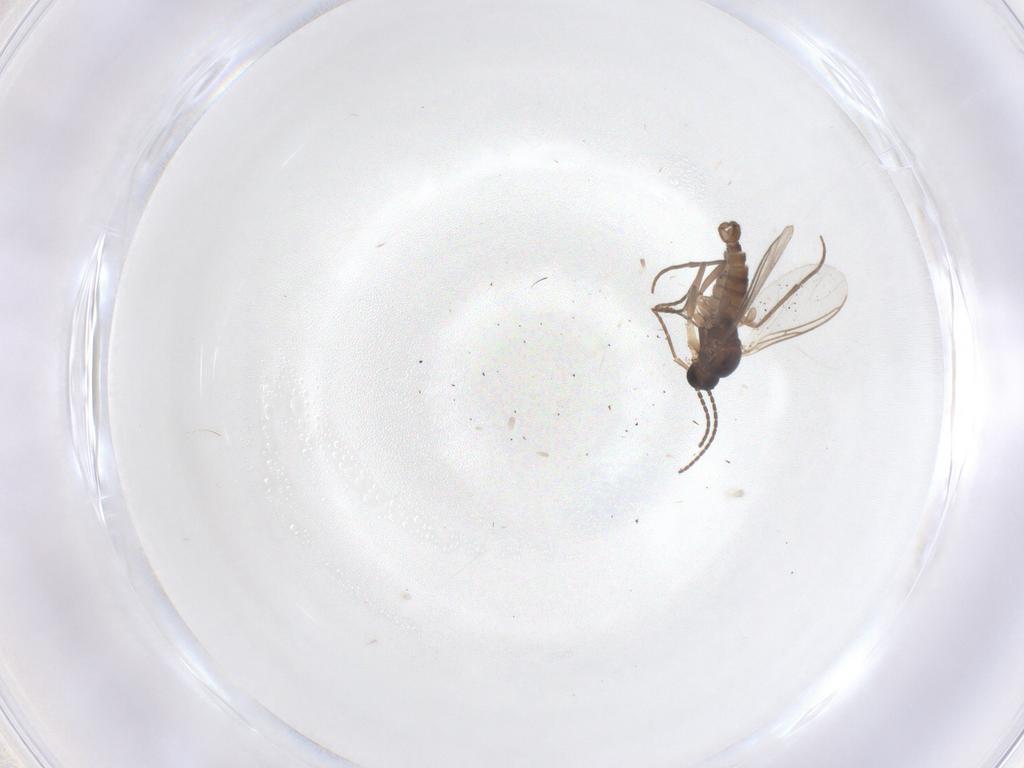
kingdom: Animalia
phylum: Arthropoda
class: Insecta
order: Diptera
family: Sciaridae
